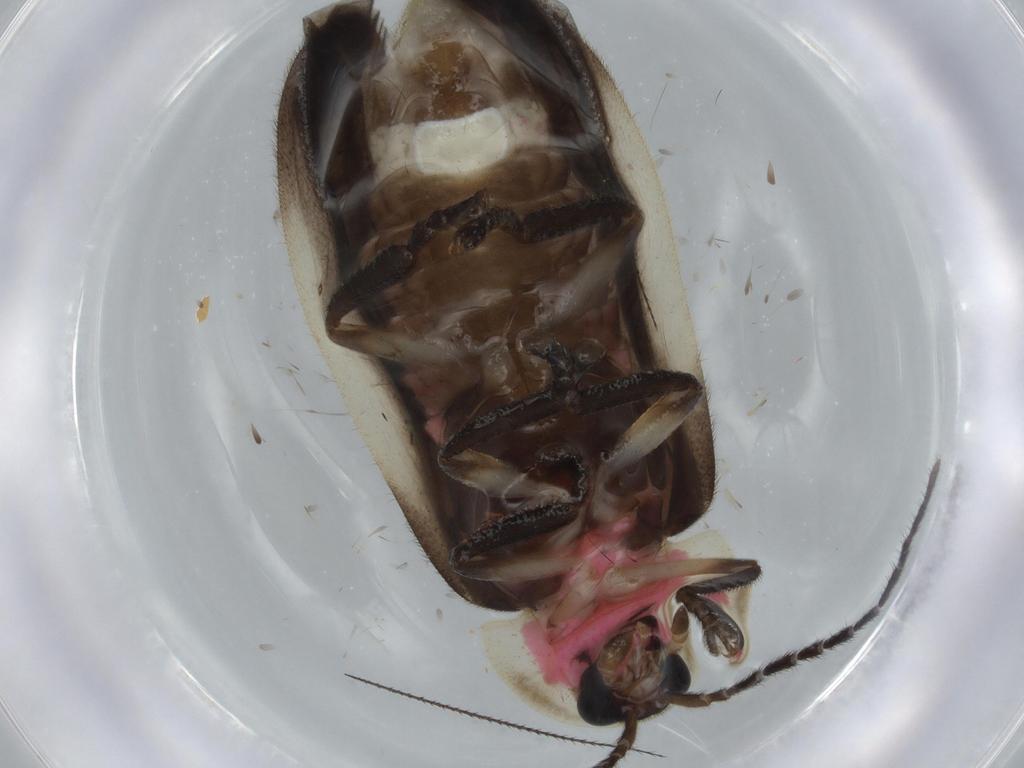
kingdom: Animalia
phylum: Arthropoda
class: Insecta
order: Coleoptera
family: Lampyridae
